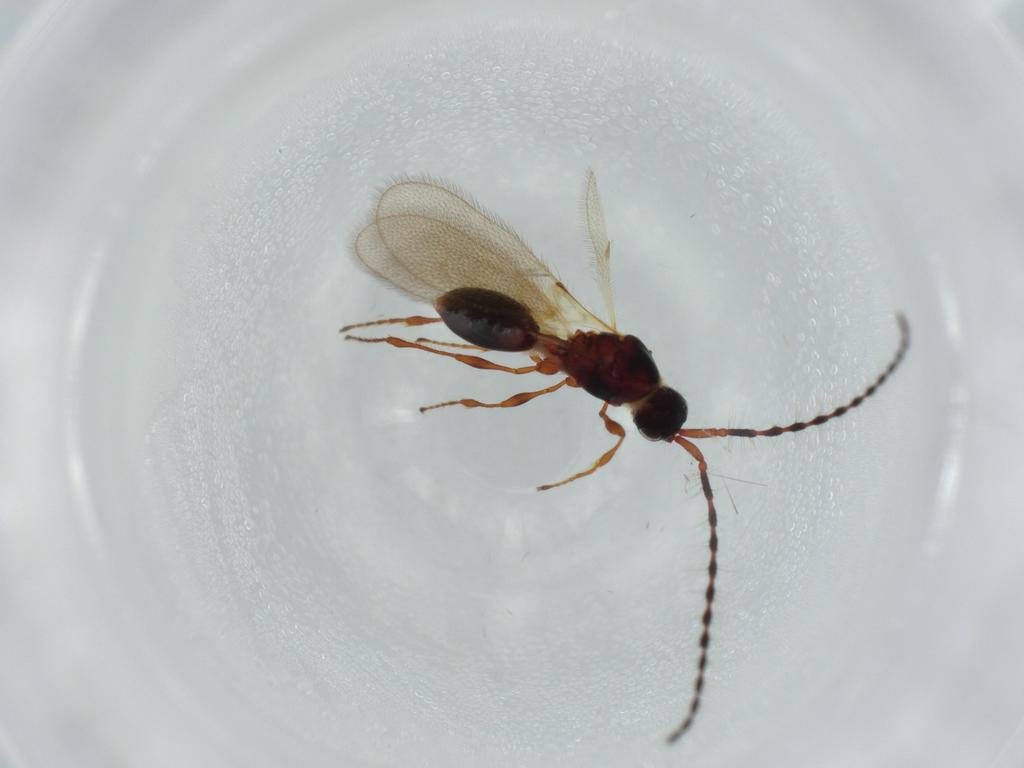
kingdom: Animalia
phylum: Arthropoda
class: Insecta
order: Hymenoptera
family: Diapriidae
